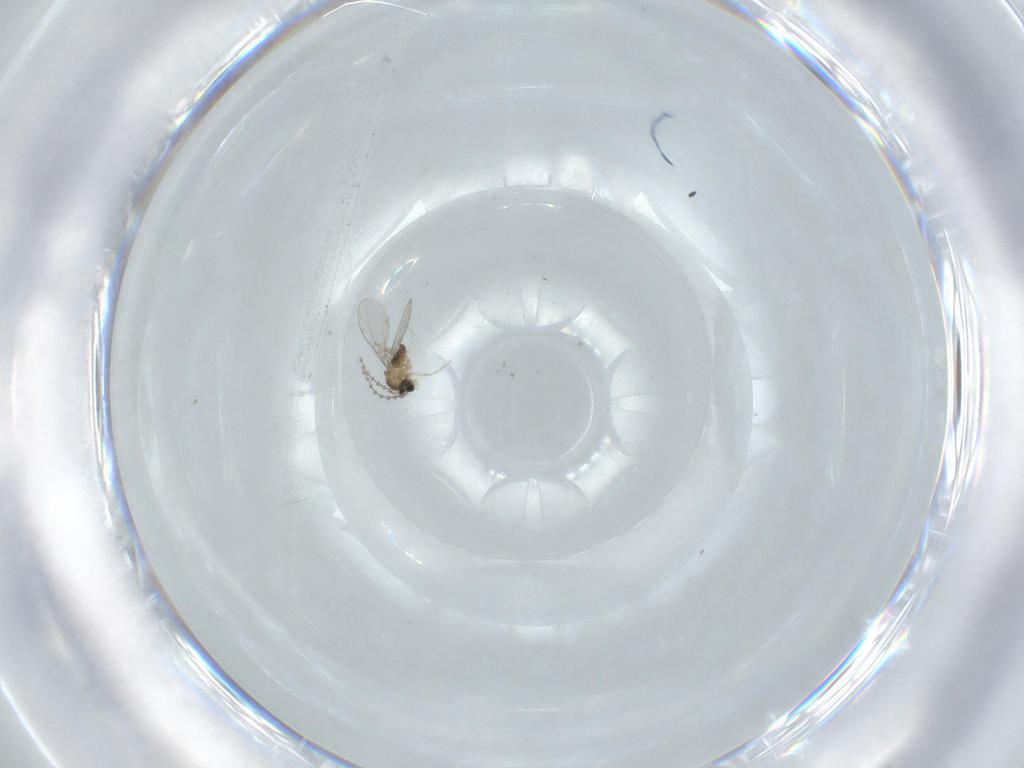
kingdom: Animalia
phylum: Arthropoda
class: Insecta
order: Diptera
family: Cecidomyiidae
